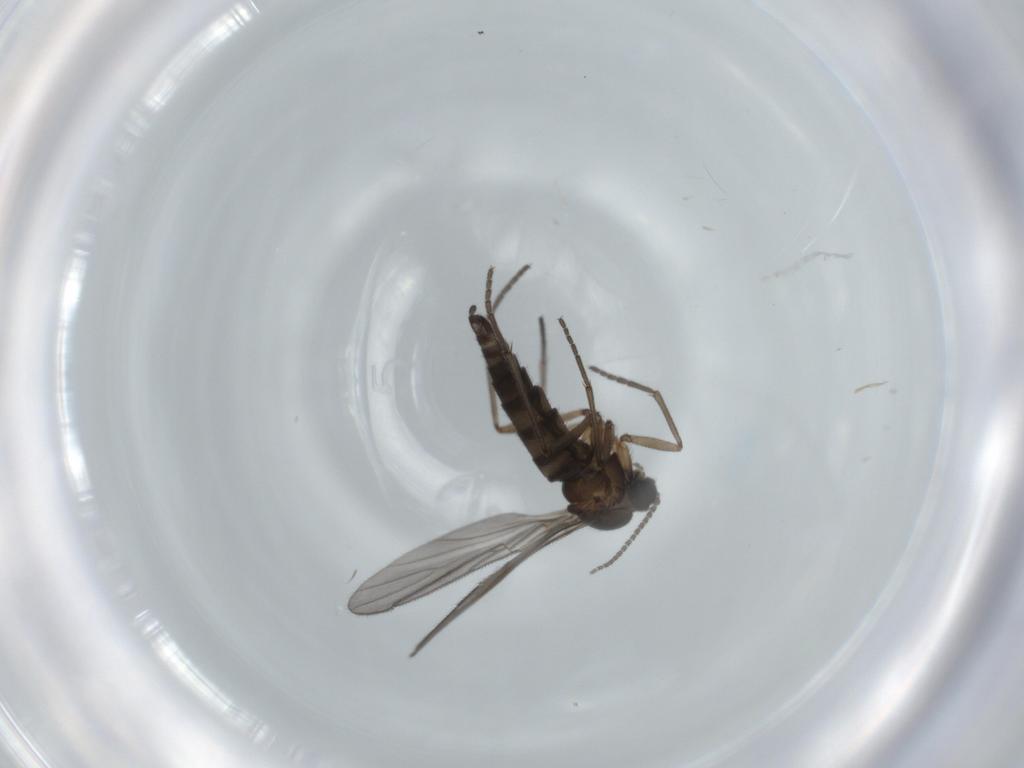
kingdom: Animalia
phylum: Arthropoda
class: Insecta
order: Diptera
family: Sciaridae
